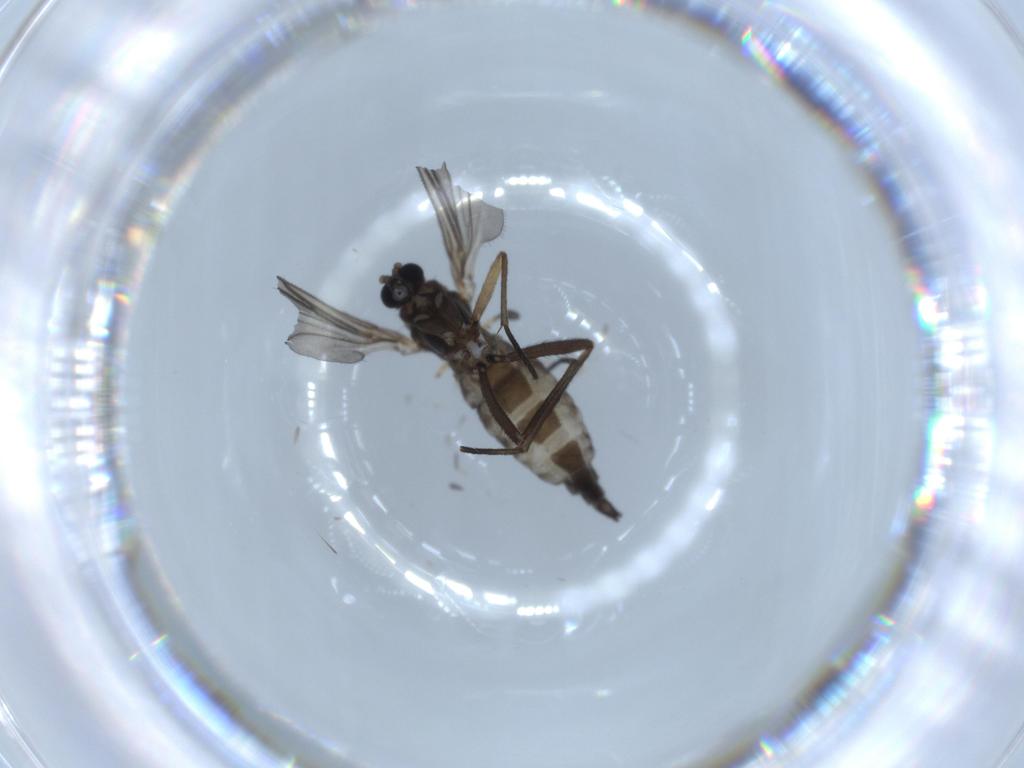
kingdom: Animalia
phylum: Arthropoda
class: Insecta
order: Diptera
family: Sciaridae
